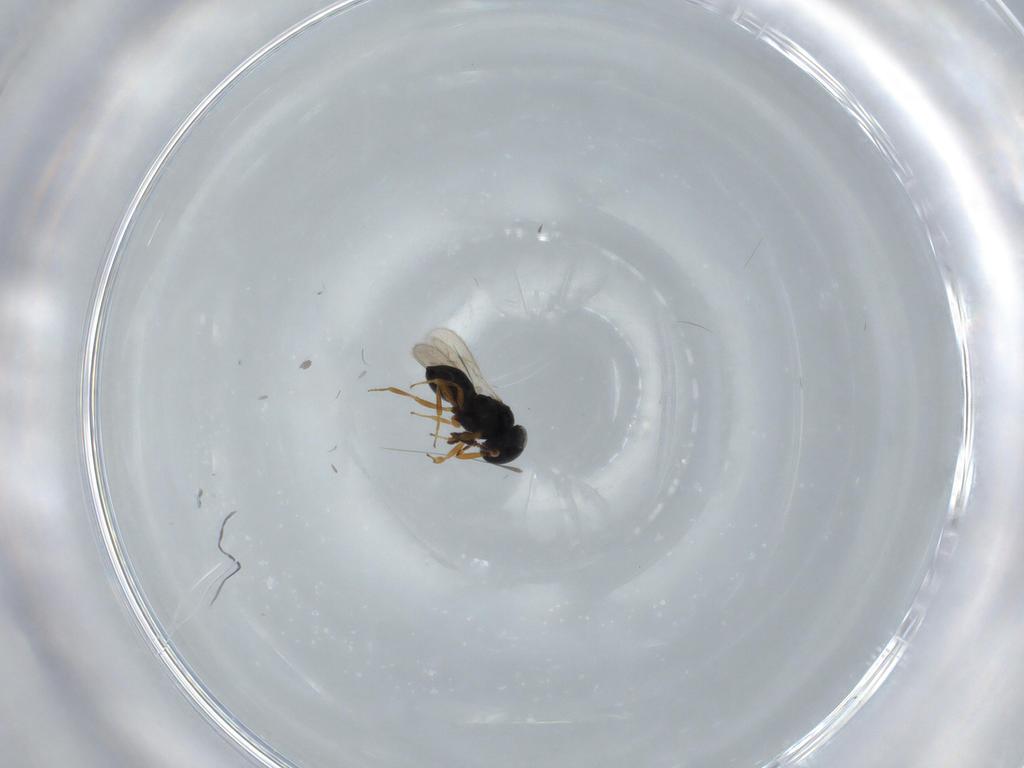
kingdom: Animalia
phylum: Arthropoda
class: Insecta
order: Hymenoptera
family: Scelionidae
